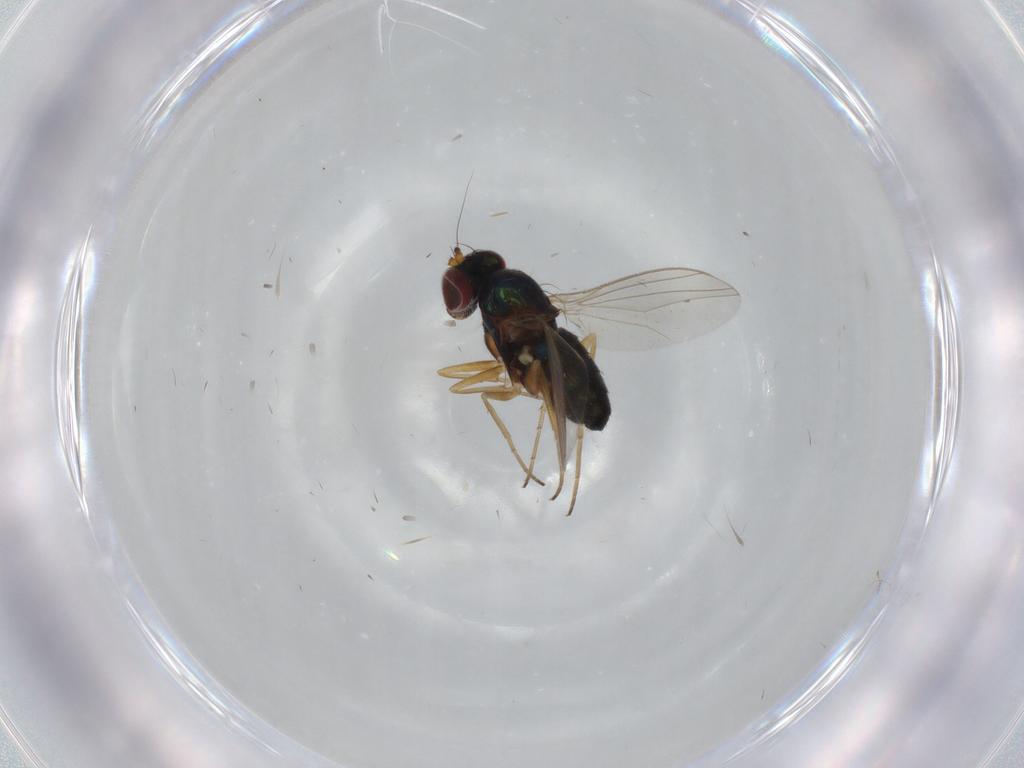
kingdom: Animalia
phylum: Arthropoda
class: Insecta
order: Diptera
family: Dolichopodidae
